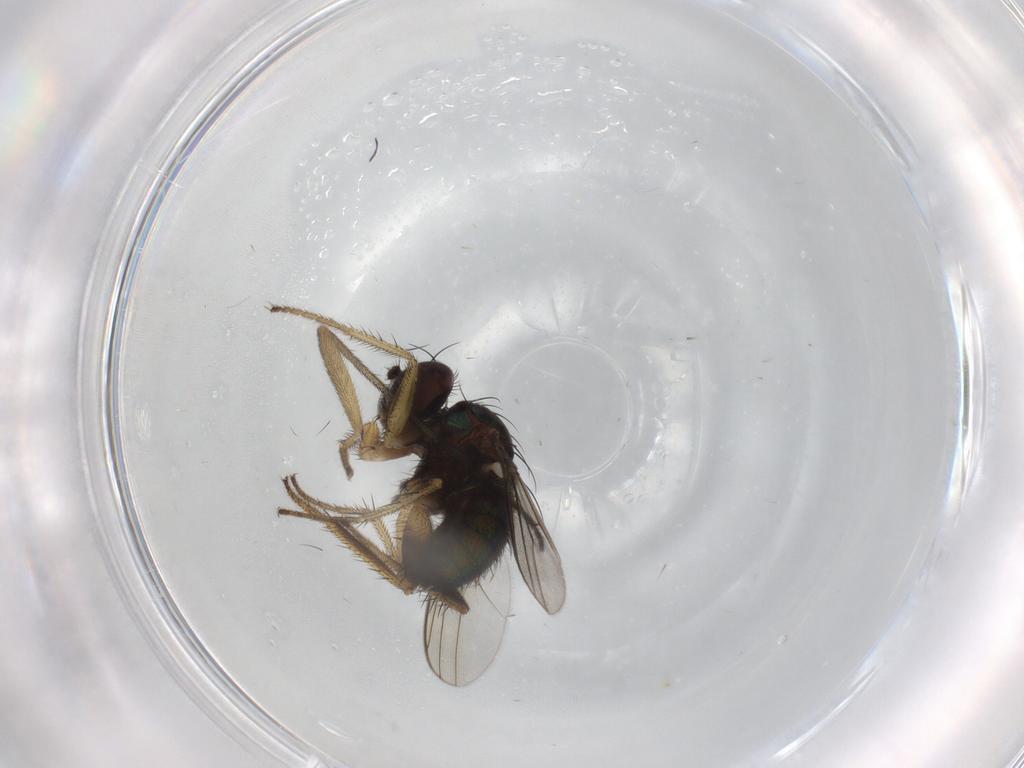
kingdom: Animalia
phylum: Arthropoda
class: Insecta
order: Diptera
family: Dolichopodidae
